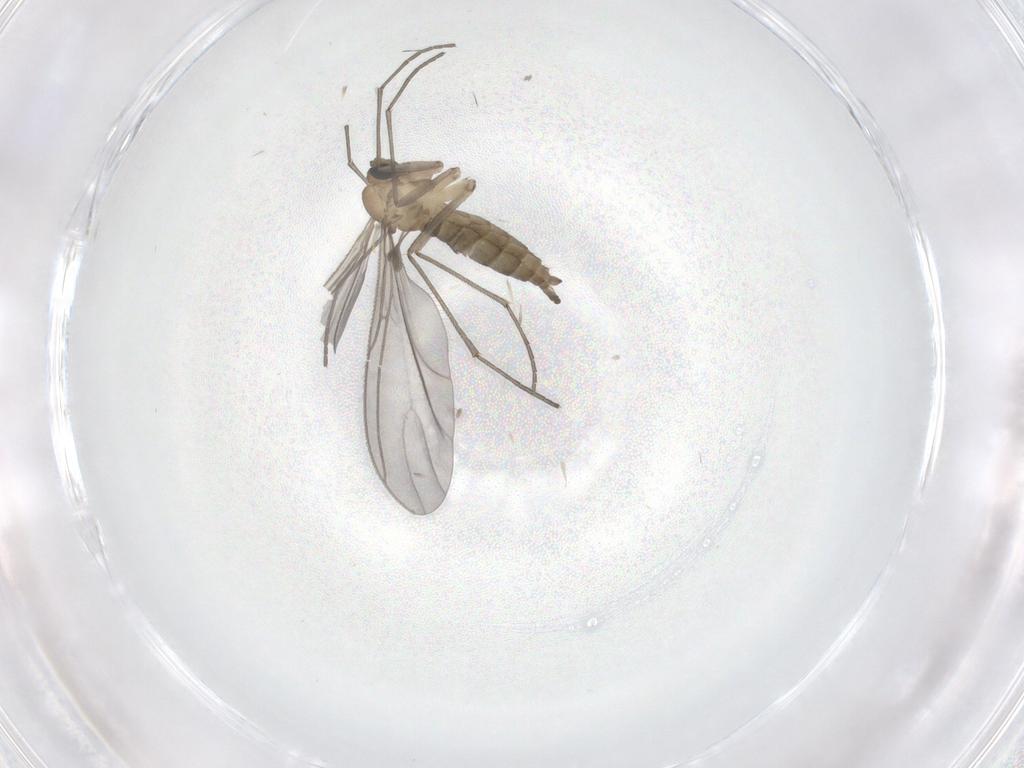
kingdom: Animalia
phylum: Arthropoda
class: Insecta
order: Diptera
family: Sciaridae
